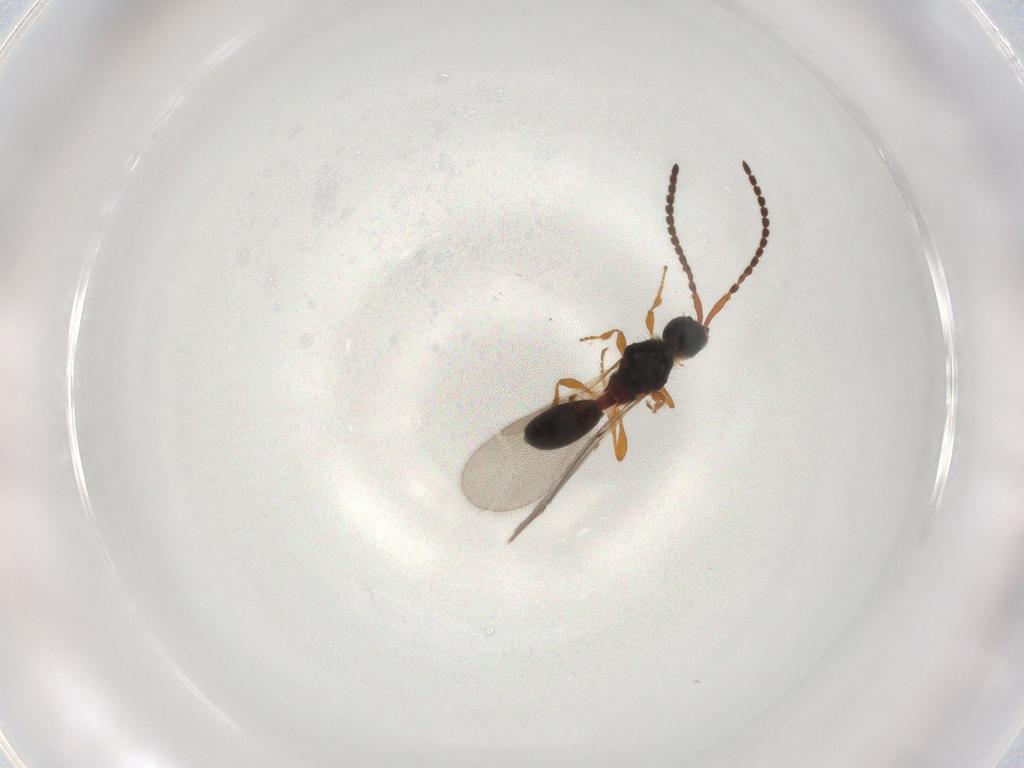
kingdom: Animalia
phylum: Arthropoda
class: Insecta
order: Hymenoptera
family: Diapriidae
